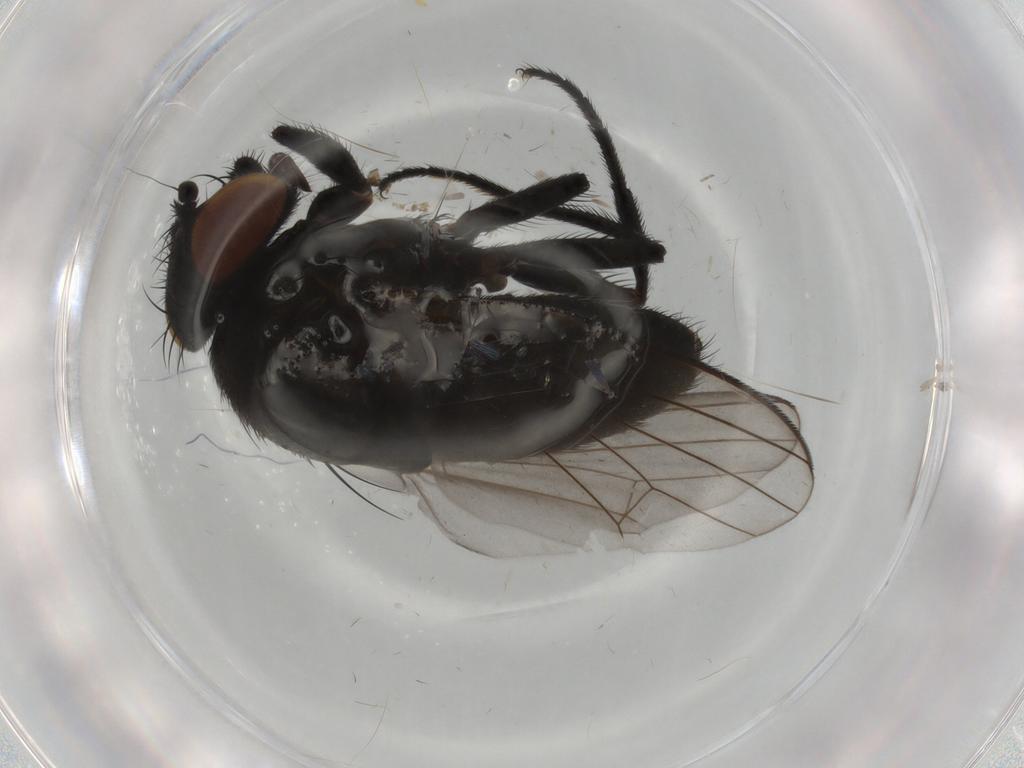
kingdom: Animalia
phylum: Arthropoda
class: Insecta
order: Diptera
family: Milichiidae
